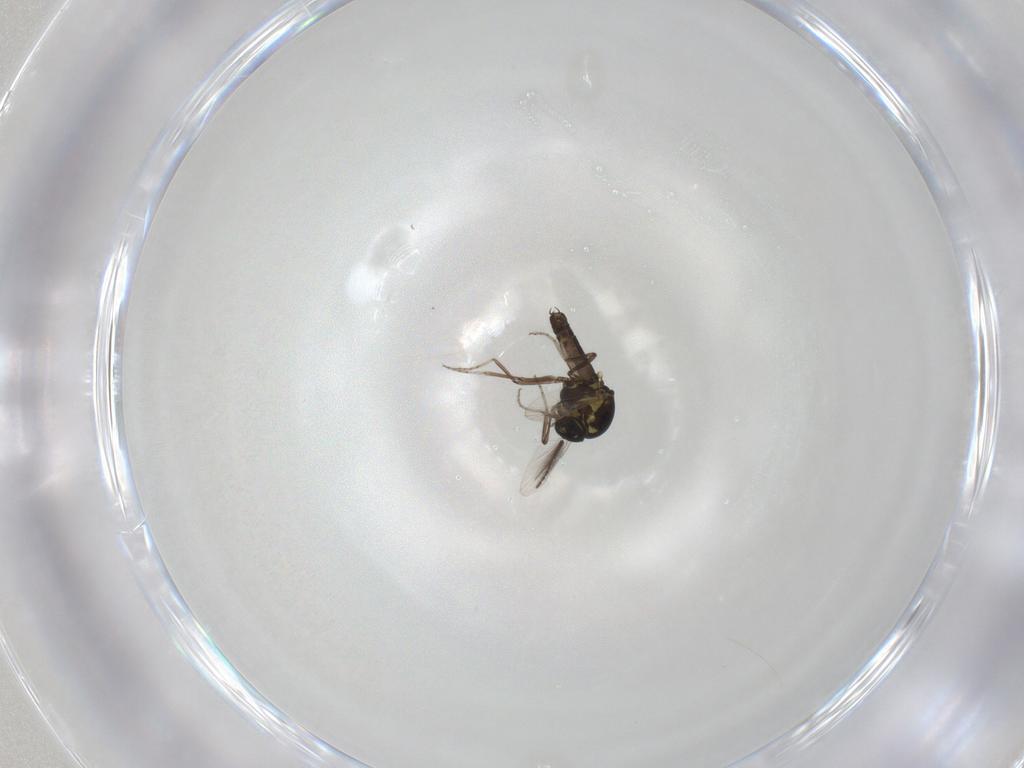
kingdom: Animalia
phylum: Arthropoda
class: Insecta
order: Diptera
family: Ceratopogonidae
